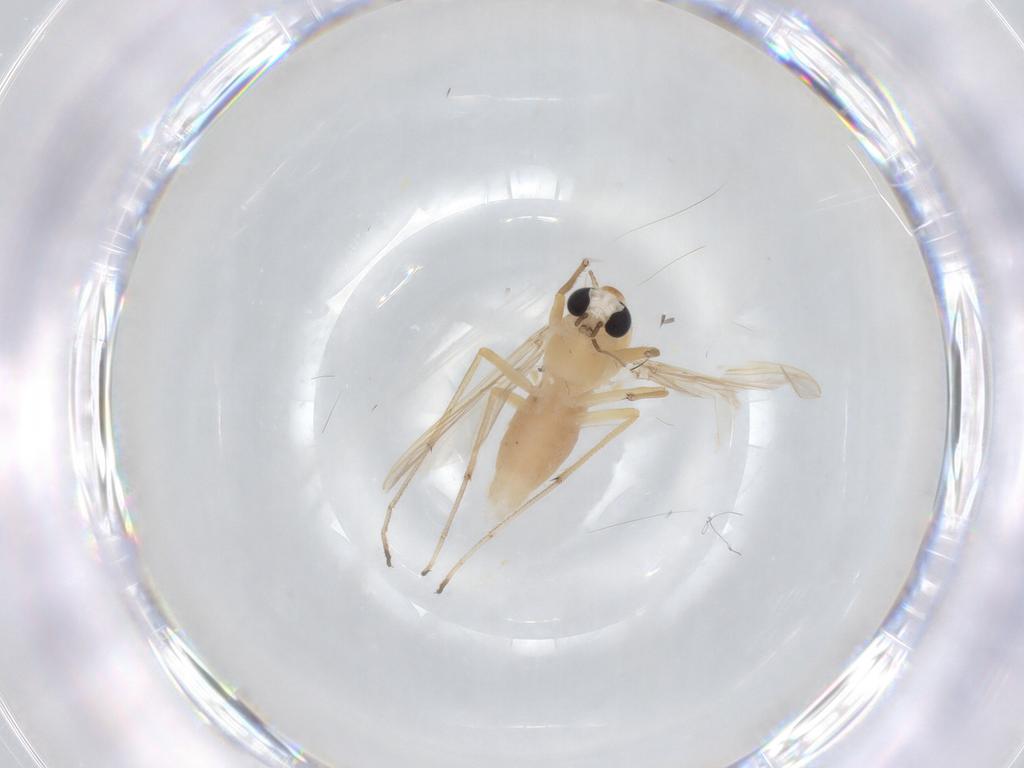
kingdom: Animalia
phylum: Arthropoda
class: Insecta
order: Diptera
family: Chironomidae
